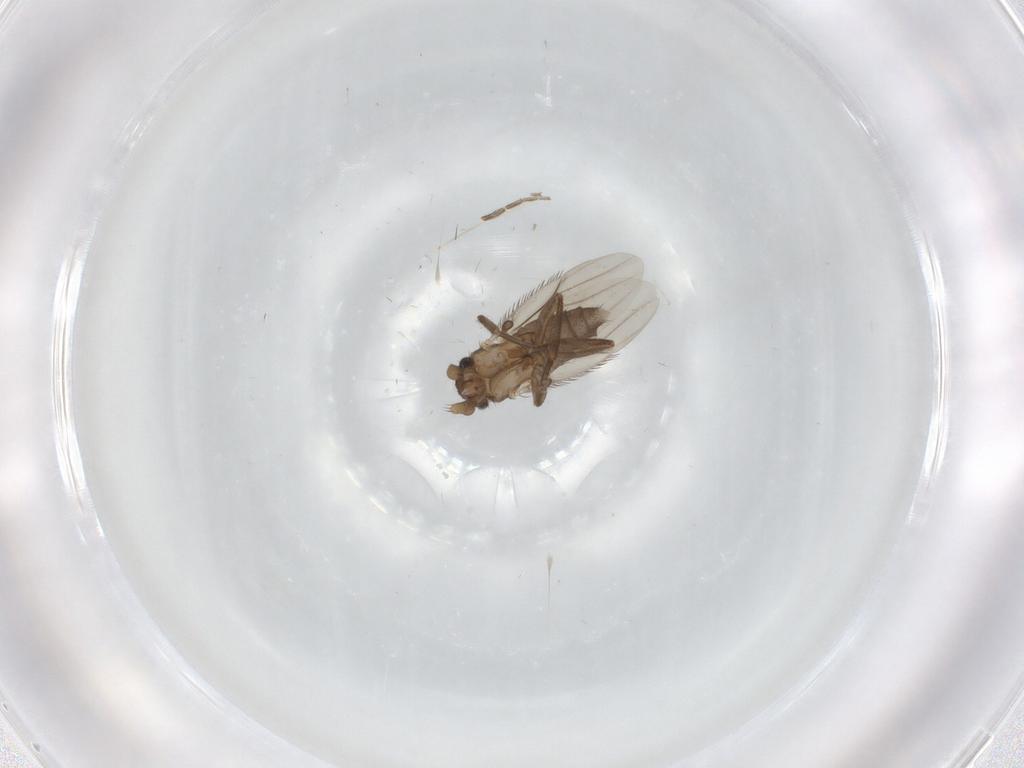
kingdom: Animalia
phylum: Arthropoda
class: Insecta
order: Diptera
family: Phoridae
